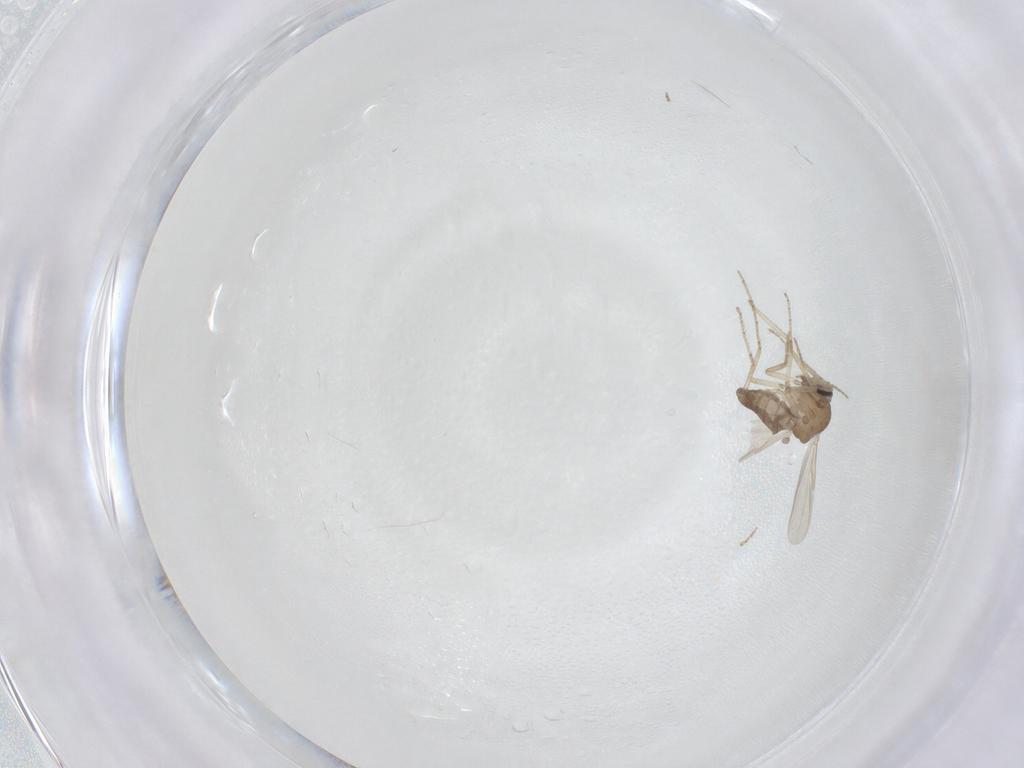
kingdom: Animalia
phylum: Arthropoda
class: Insecta
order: Diptera
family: Ceratopogonidae
